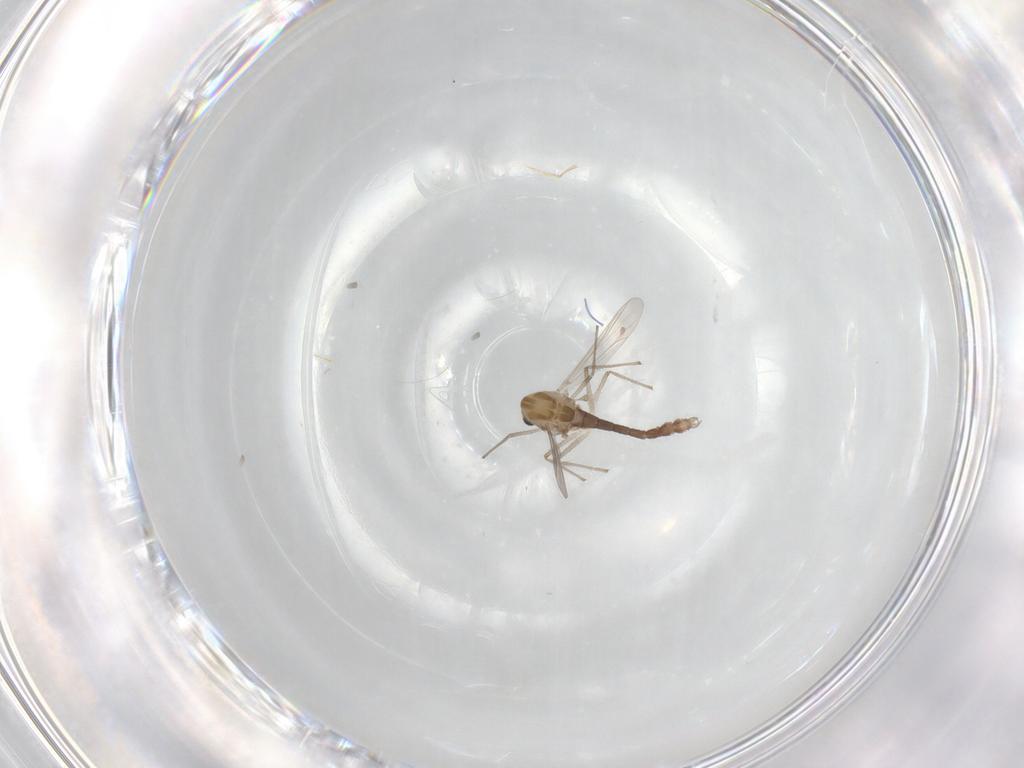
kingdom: Animalia
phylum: Arthropoda
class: Insecta
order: Diptera
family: Chironomidae
